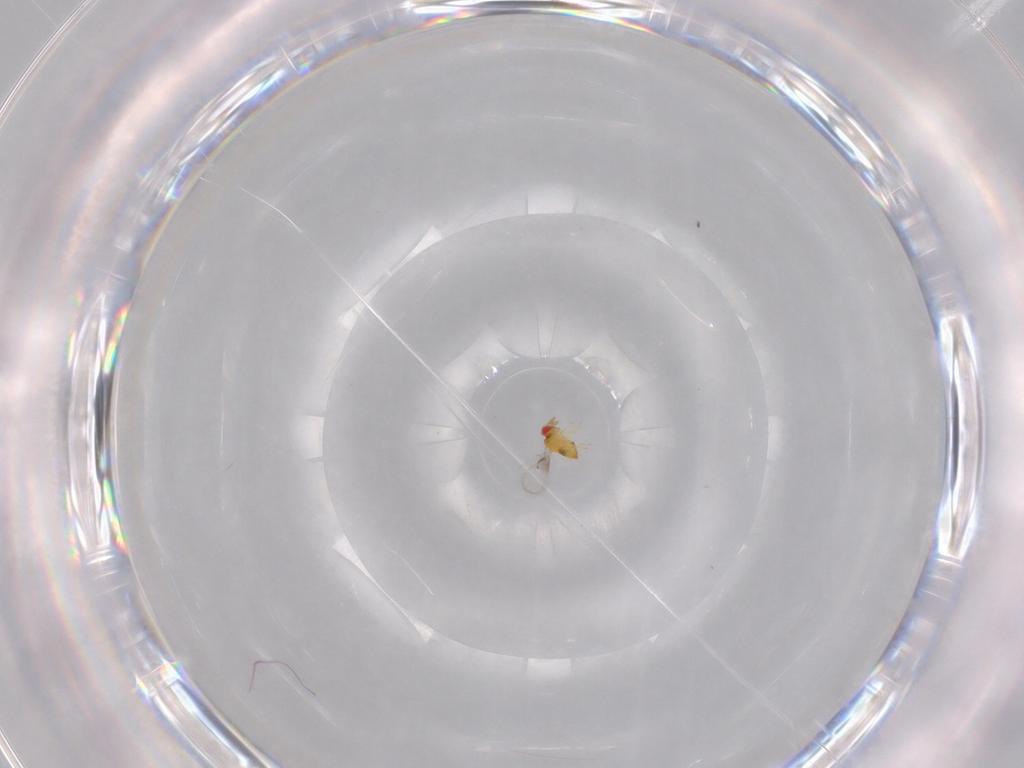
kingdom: Animalia
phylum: Arthropoda
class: Insecta
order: Hymenoptera
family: Trichogrammatidae
